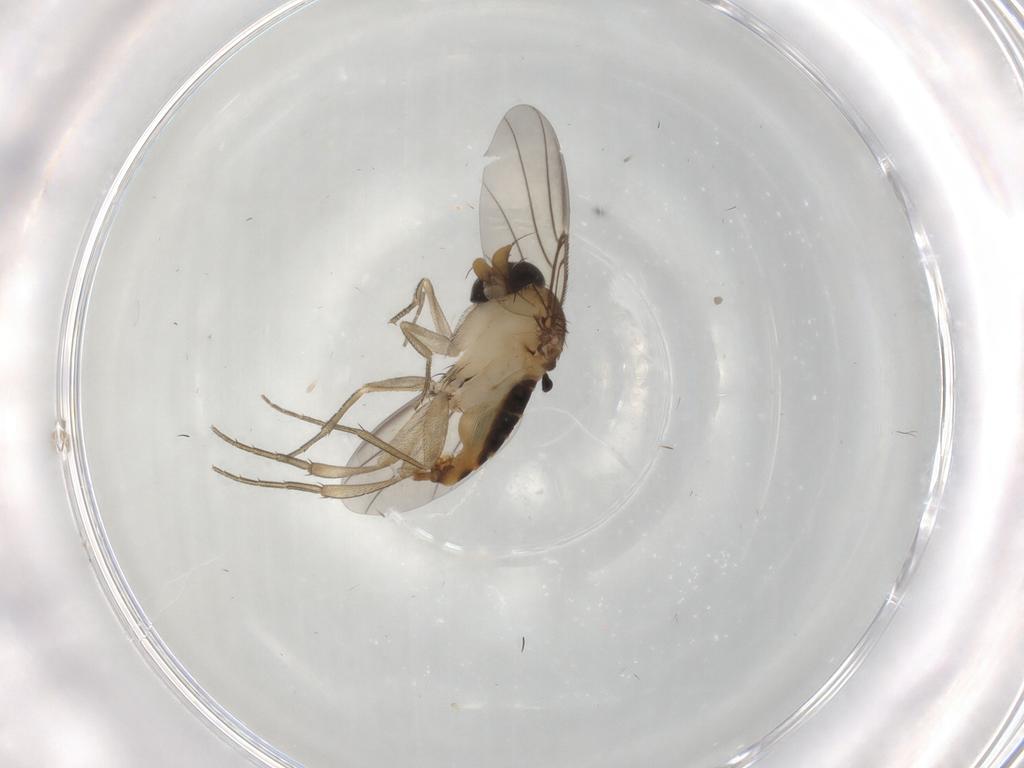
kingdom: Animalia
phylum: Arthropoda
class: Insecta
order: Diptera
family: Phoridae
